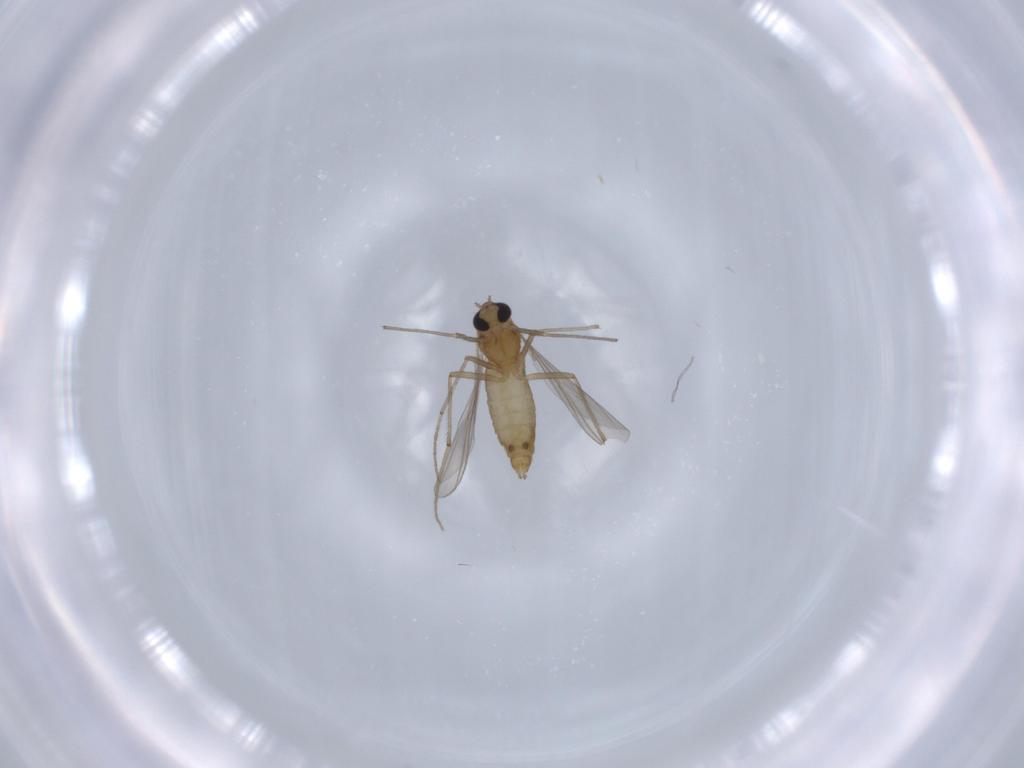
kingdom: Animalia
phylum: Arthropoda
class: Insecta
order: Diptera
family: Chironomidae
